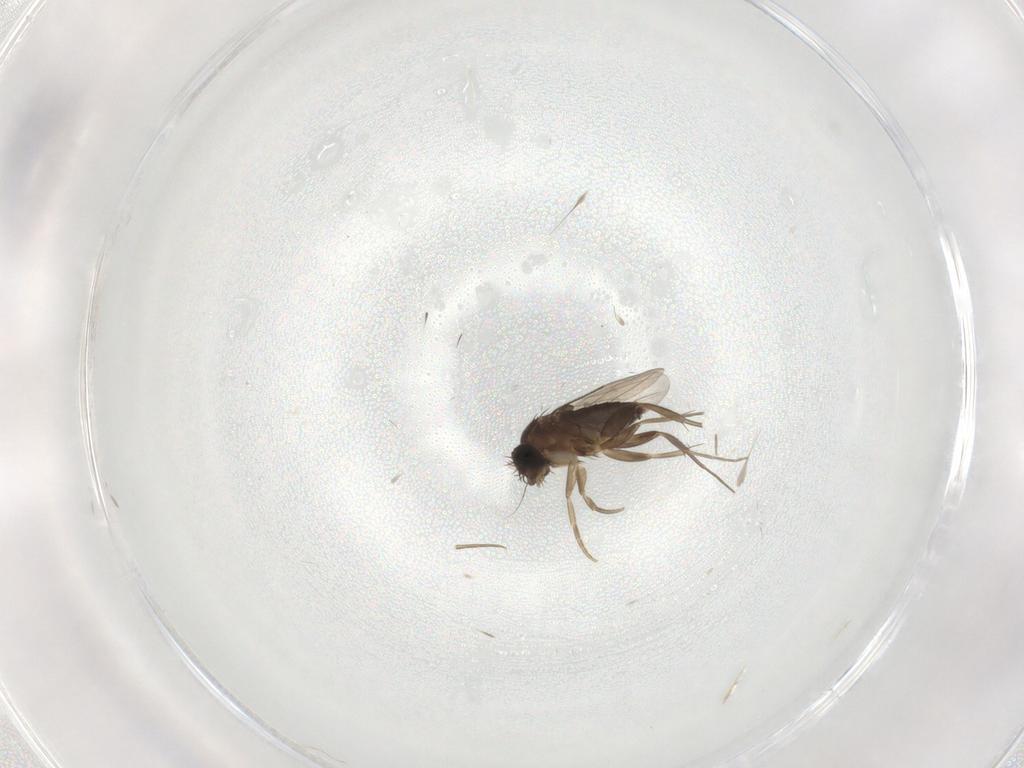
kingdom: Animalia
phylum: Arthropoda
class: Insecta
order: Diptera
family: Phoridae
